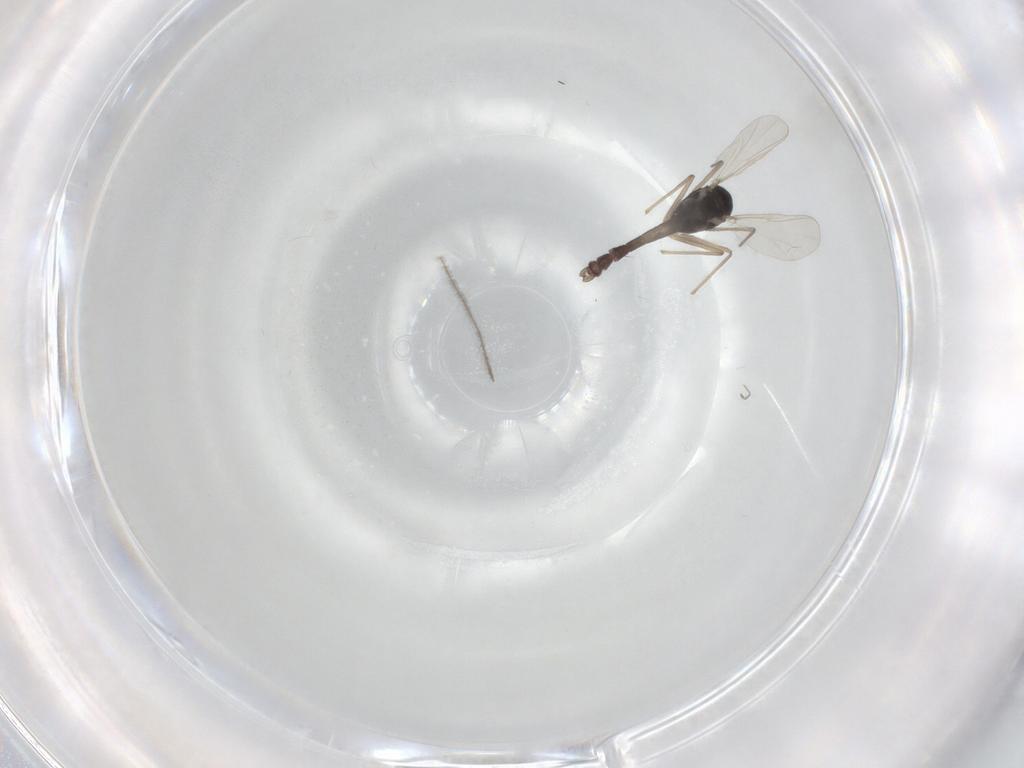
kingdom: Animalia
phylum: Arthropoda
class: Insecta
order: Diptera
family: Chironomidae
